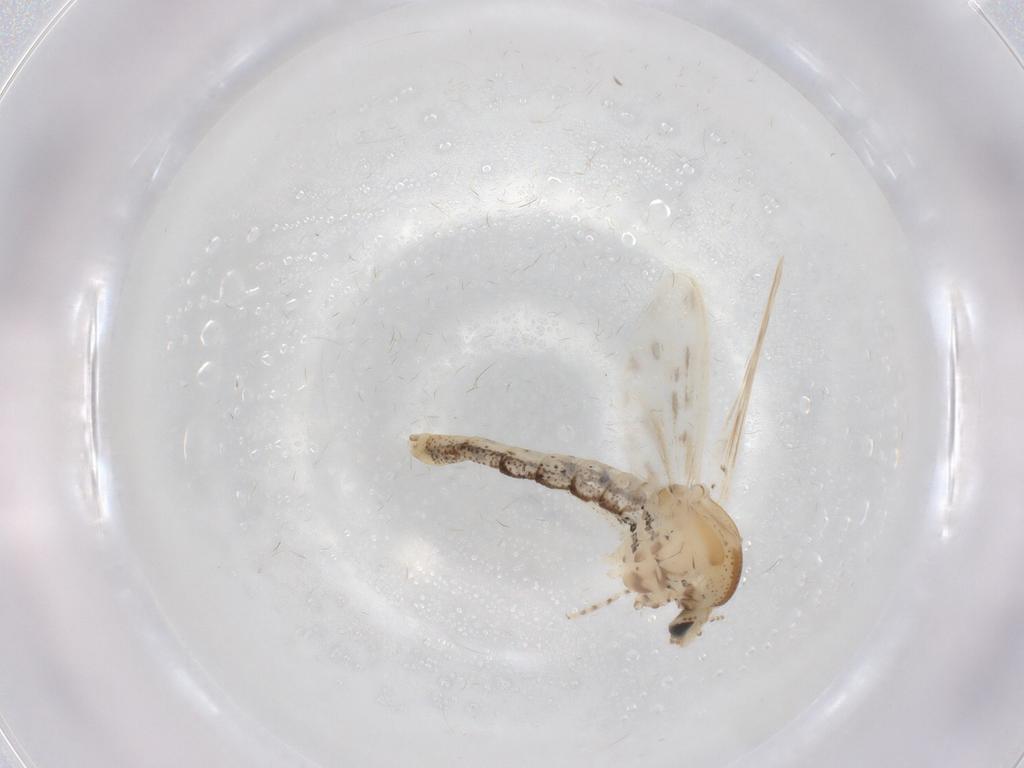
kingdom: Animalia
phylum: Arthropoda
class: Insecta
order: Diptera
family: Chaoboridae
